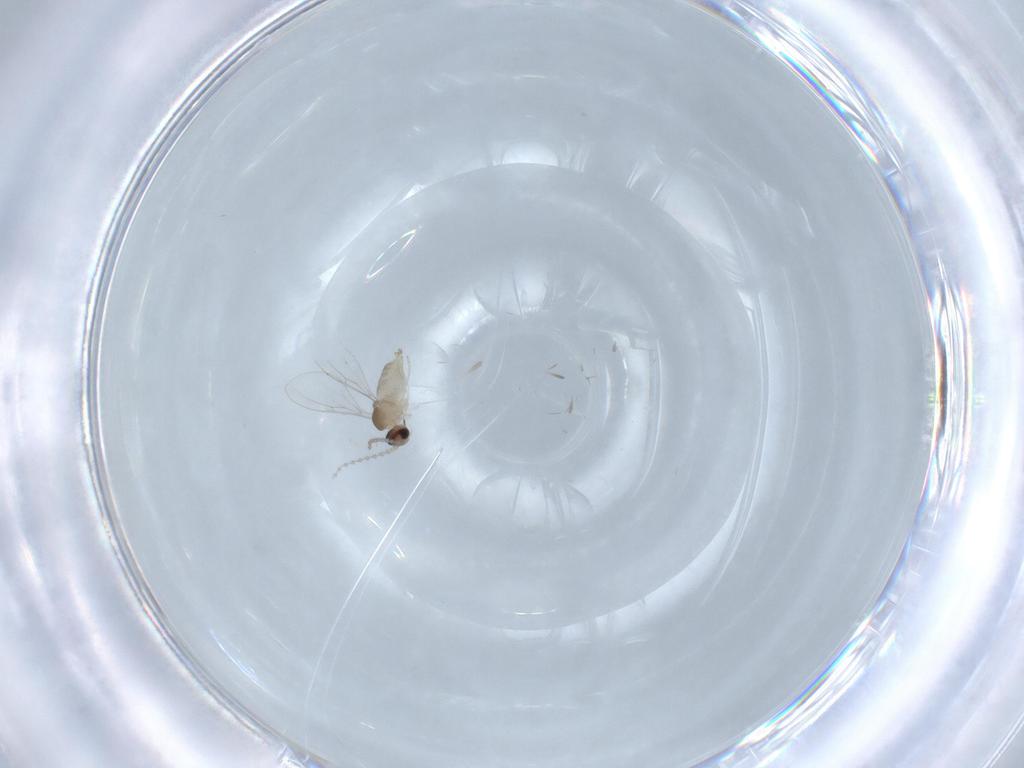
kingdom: Animalia
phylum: Arthropoda
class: Insecta
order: Diptera
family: Cecidomyiidae
